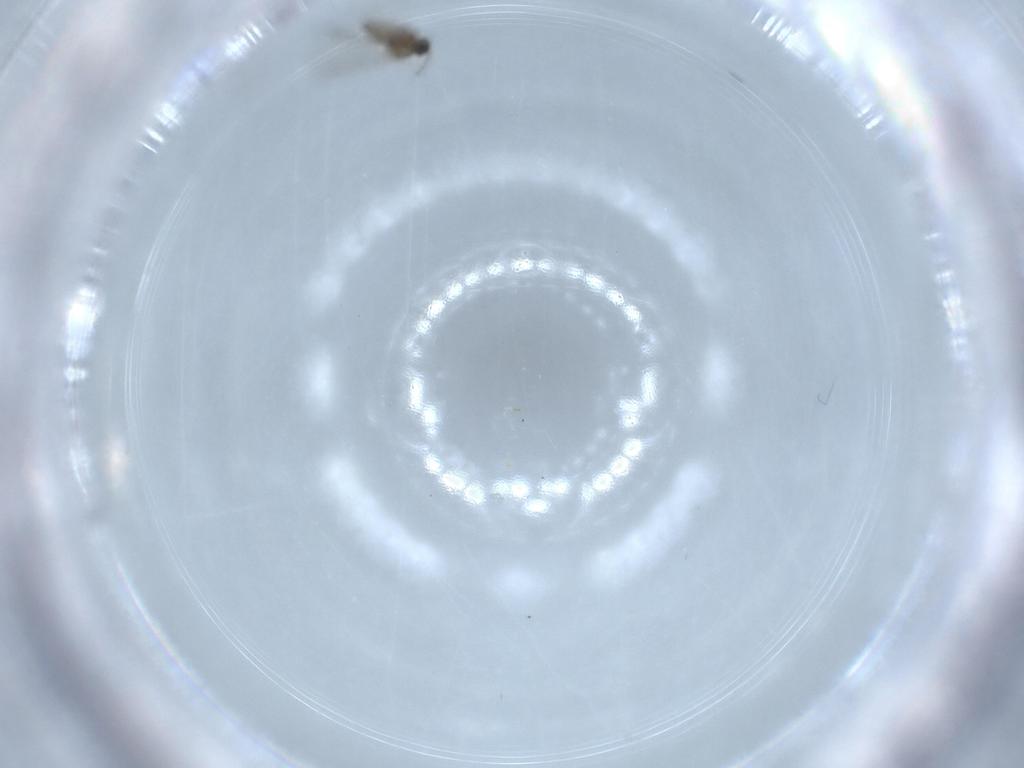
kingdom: Animalia
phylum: Arthropoda
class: Insecta
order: Diptera
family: Cecidomyiidae
